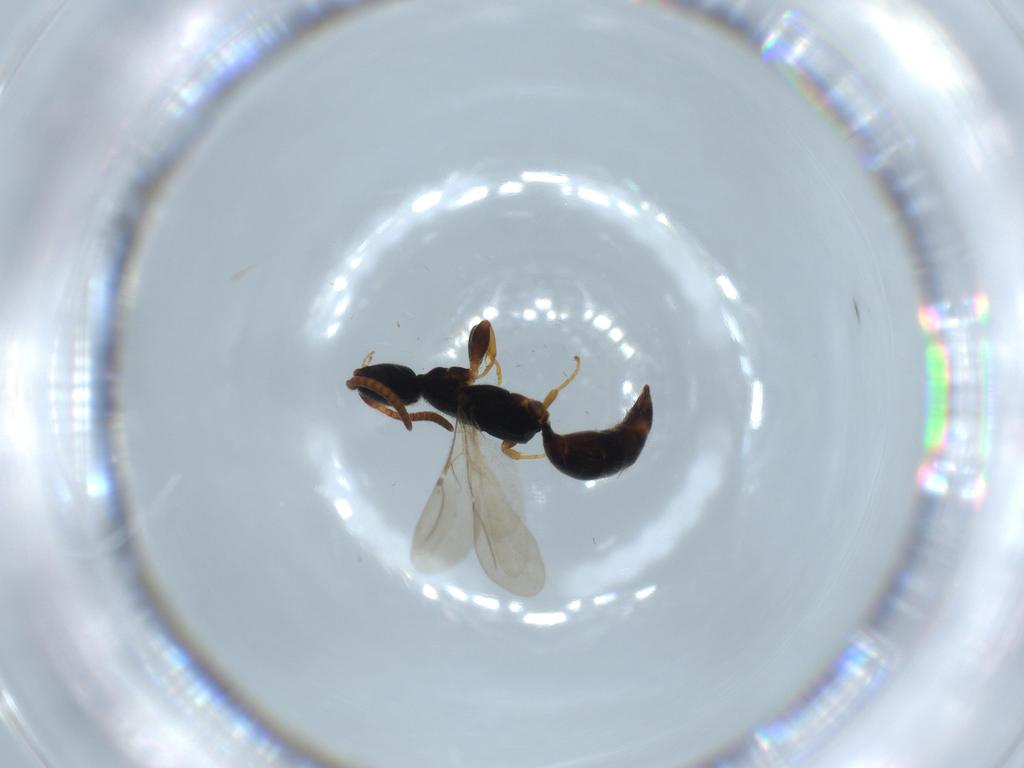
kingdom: Animalia
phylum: Arthropoda
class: Insecta
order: Hymenoptera
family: Bethylidae
